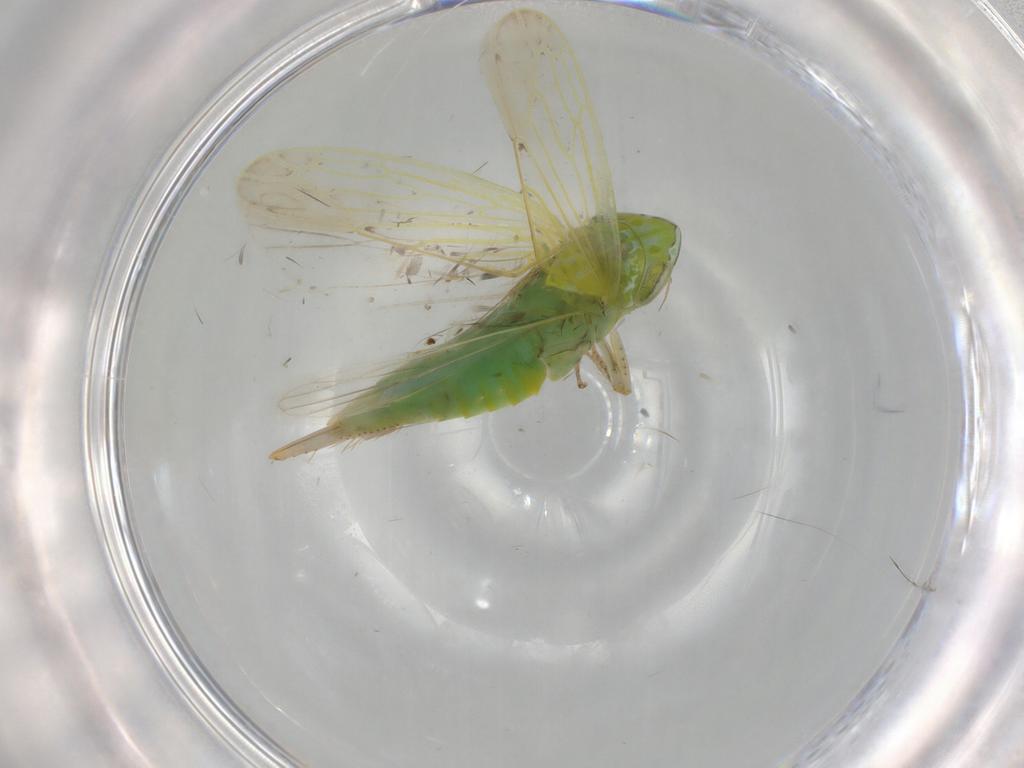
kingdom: Animalia
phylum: Arthropoda
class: Insecta
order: Hemiptera
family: Cicadellidae
